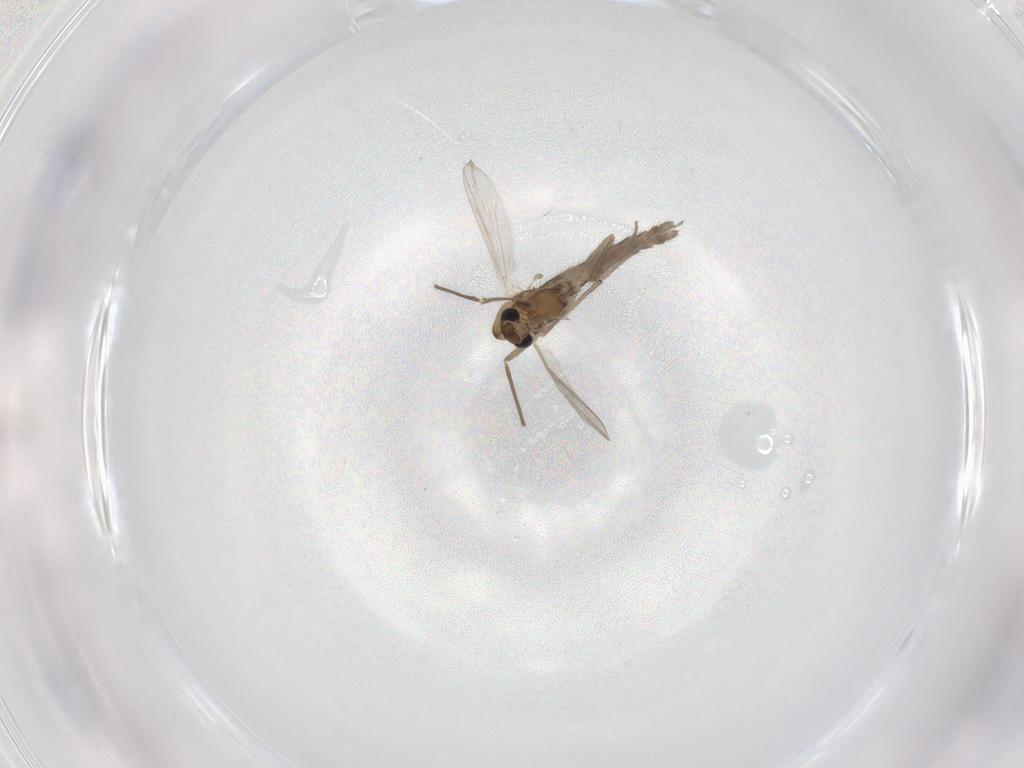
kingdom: Animalia
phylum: Arthropoda
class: Insecta
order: Diptera
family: Chironomidae
